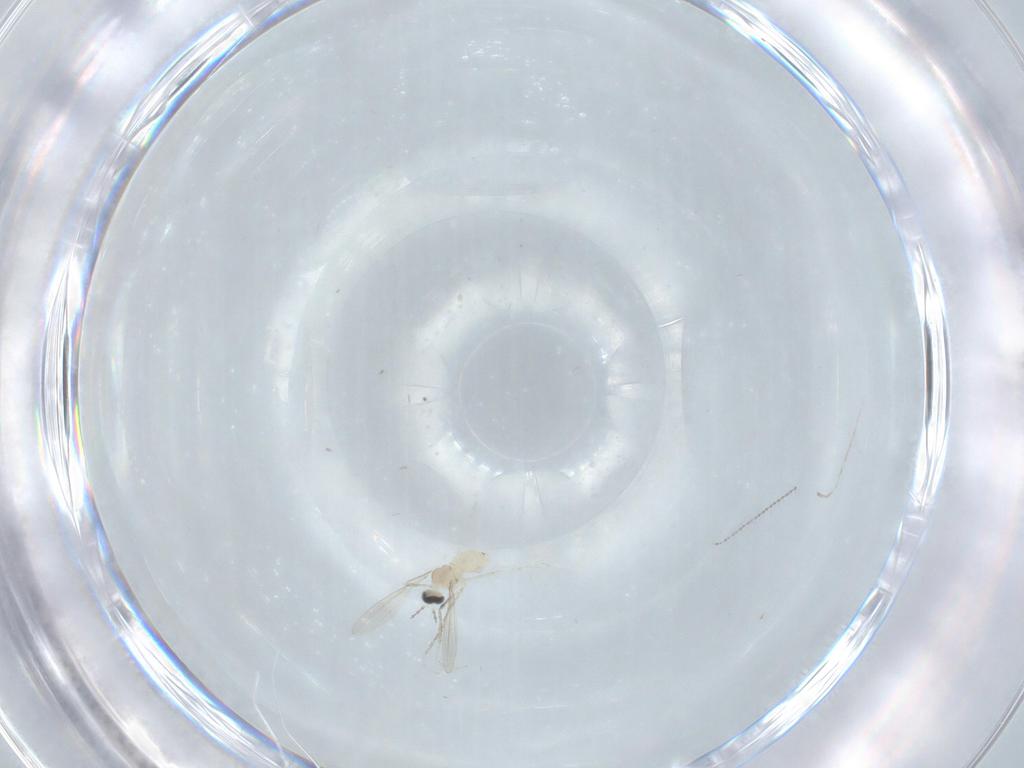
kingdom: Animalia
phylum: Arthropoda
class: Insecta
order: Diptera
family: Cecidomyiidae
